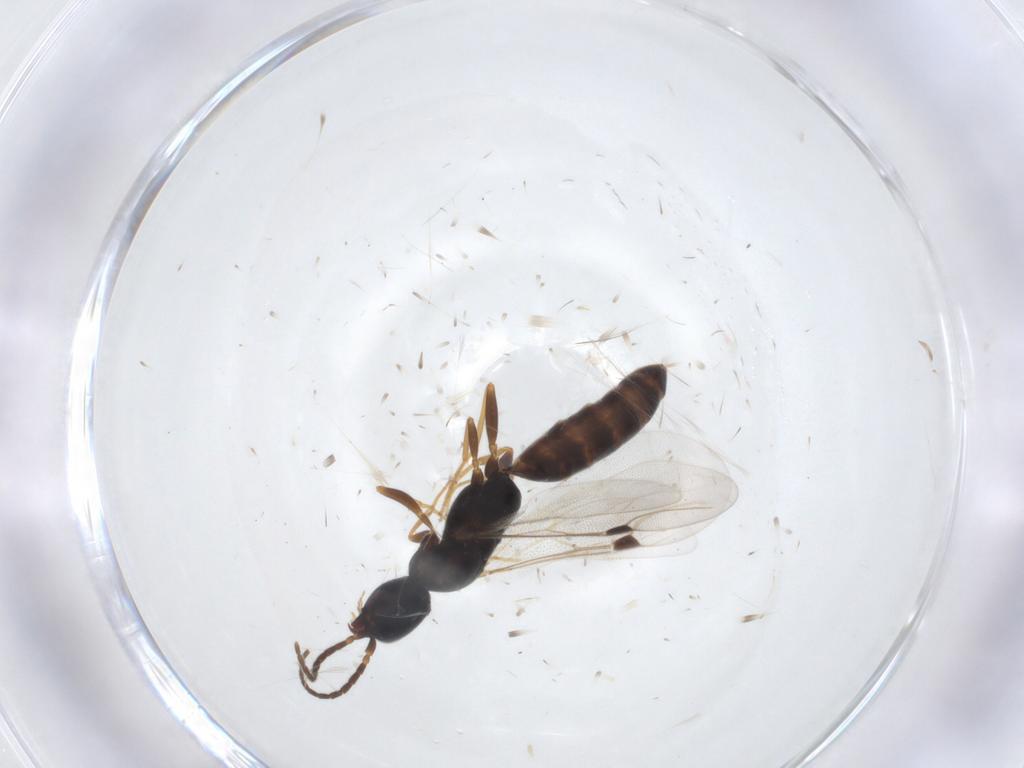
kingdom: Animalia
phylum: Arthropoda
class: Insecta
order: Hymenoptera
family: Bethylidae
